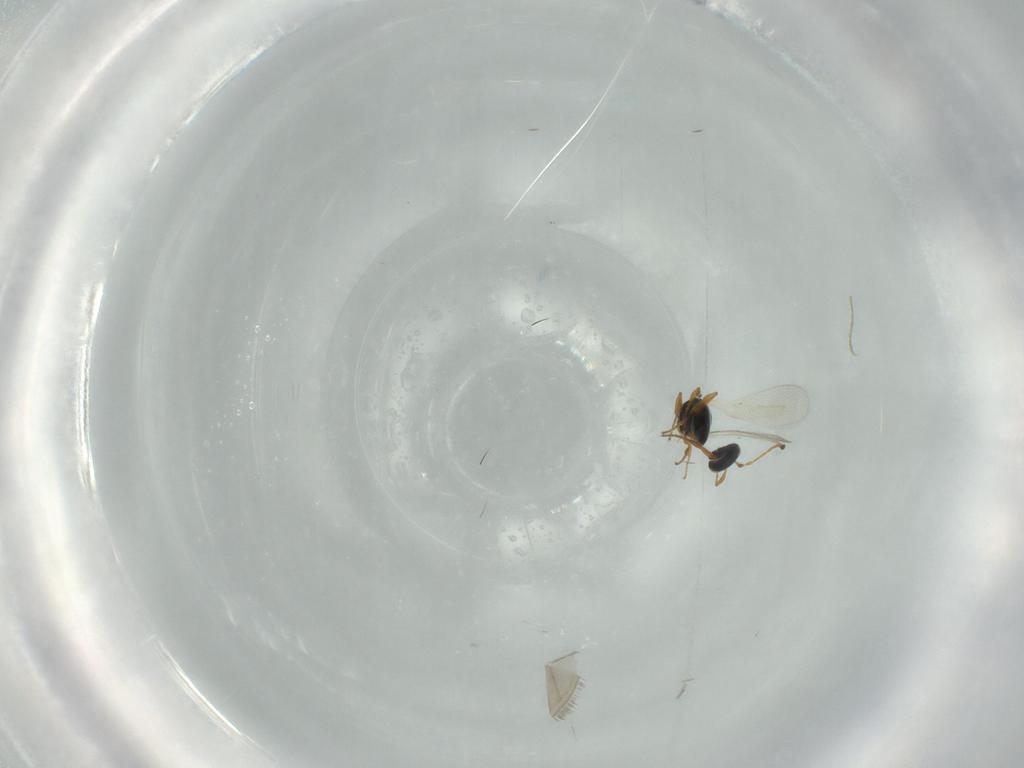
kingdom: Animalia
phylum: Arthropoda
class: Insecta
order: Hymenoptera
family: Platygastridae
